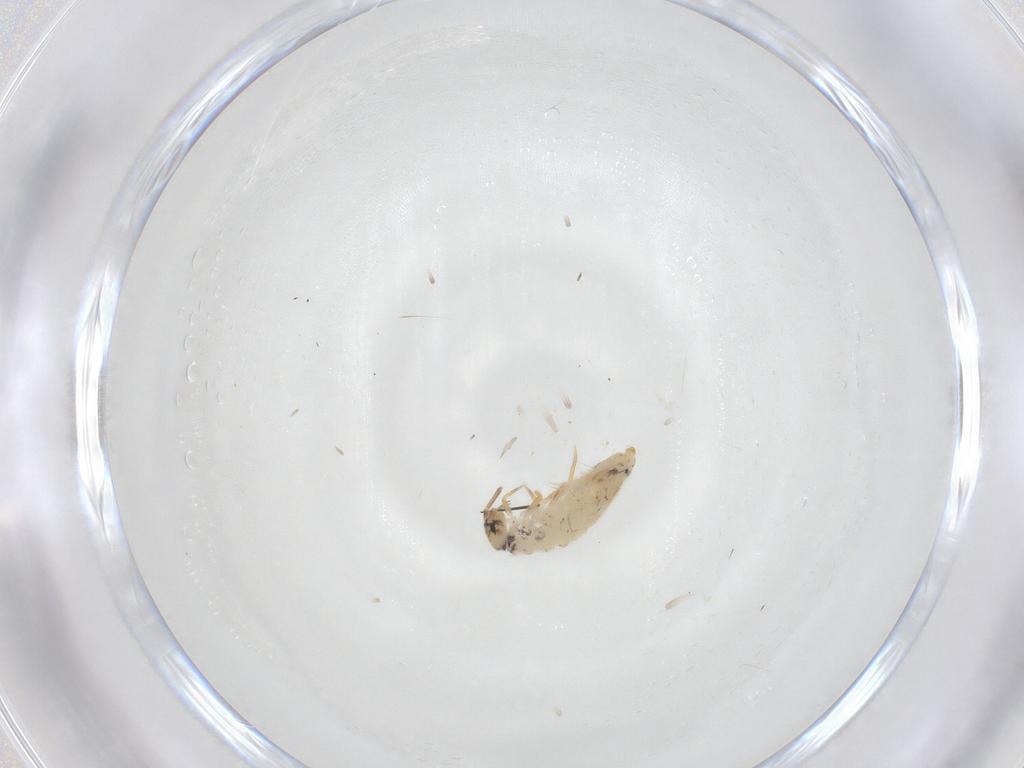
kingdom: Animalia
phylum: Arthropoda
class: Collembola
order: Entomobryomorpha
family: Entomobryidae
